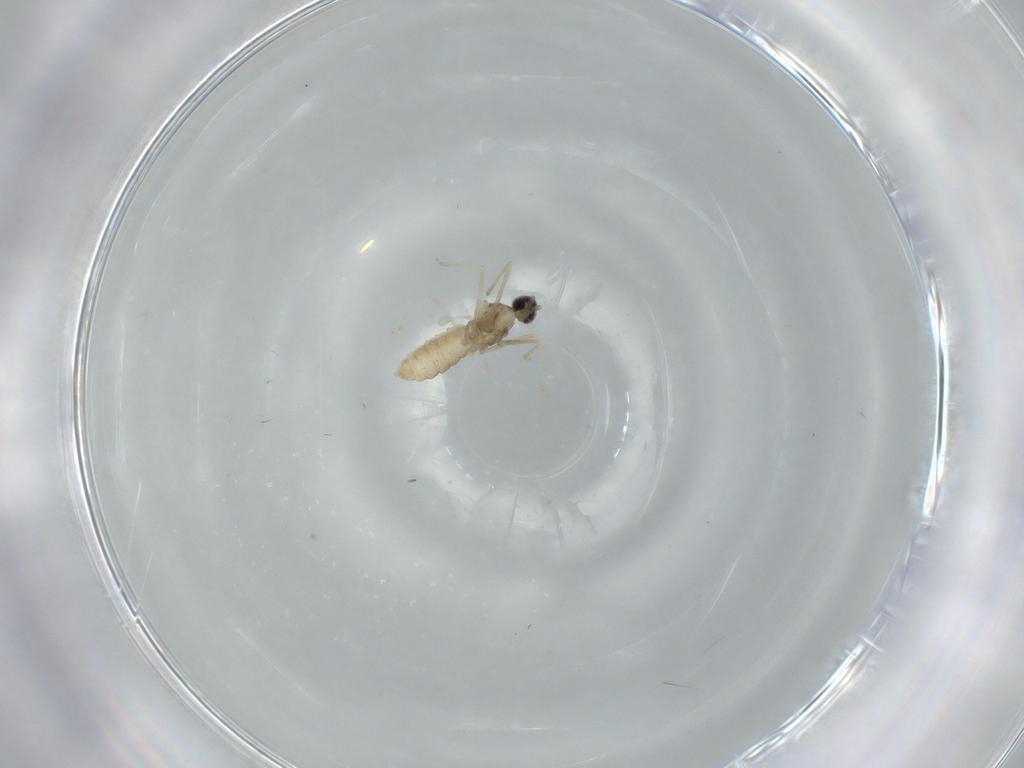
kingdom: Animalia
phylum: Arthropoda
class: Insecta
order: Diptera
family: Cecidomyiidae
